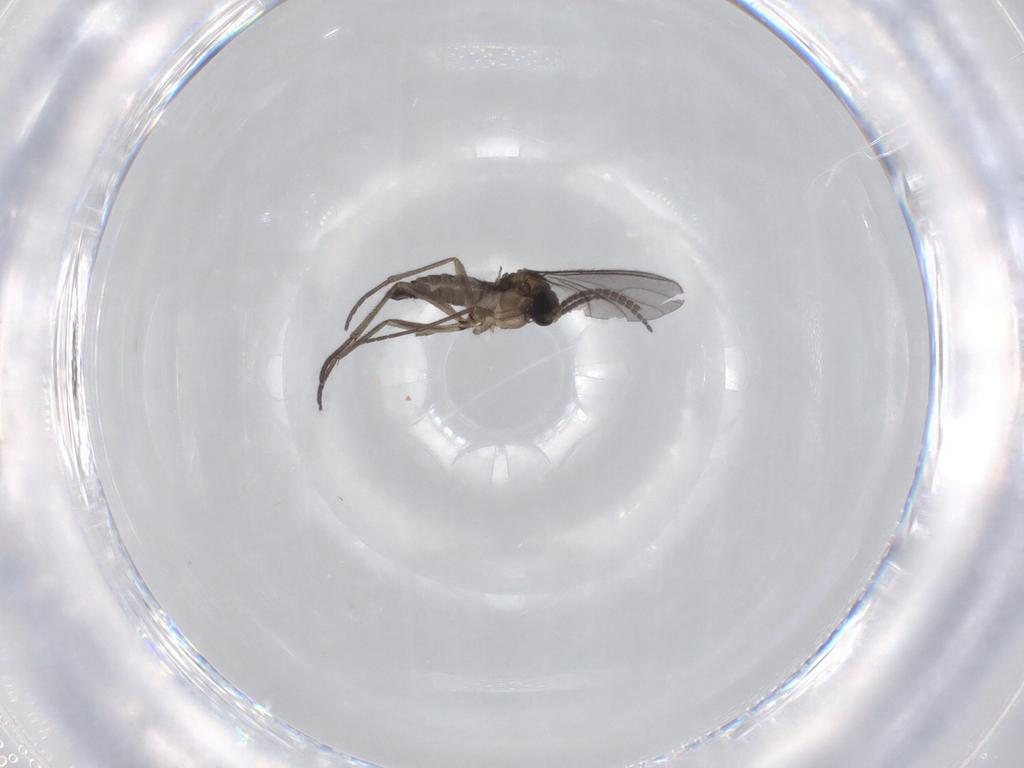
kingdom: Animalia
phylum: Arthropoda
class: Insecta
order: Diptera
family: Sciaridae
